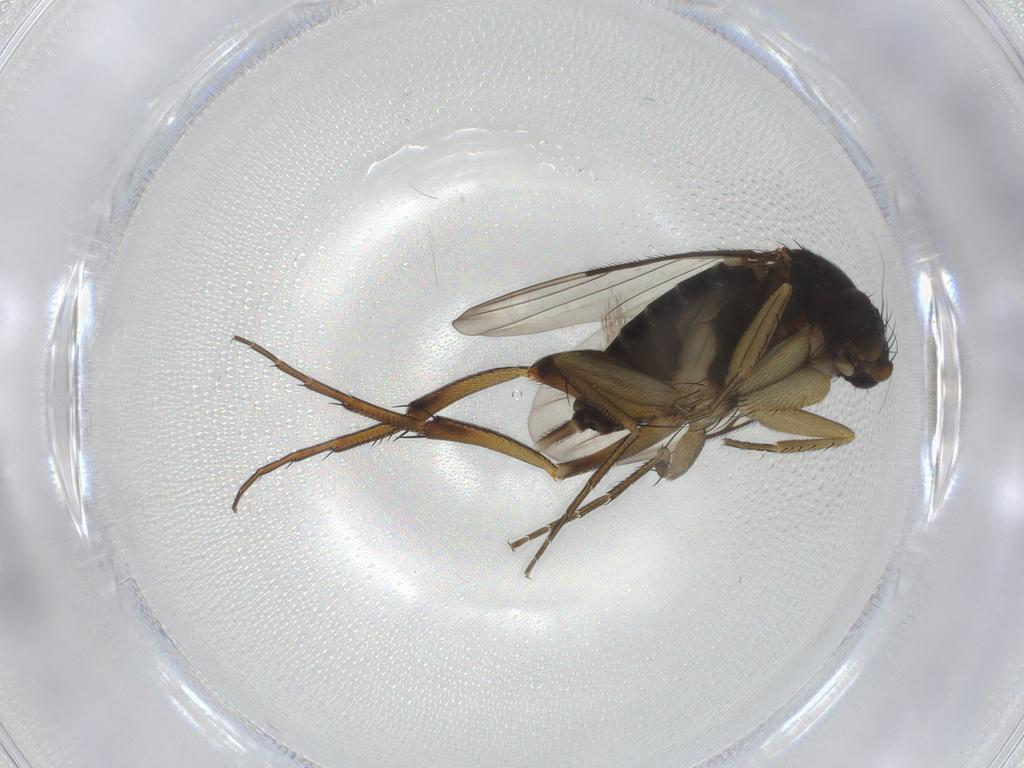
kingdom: Animalia
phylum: Arthropoda
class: Insecta
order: Diptera
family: Phoridae
